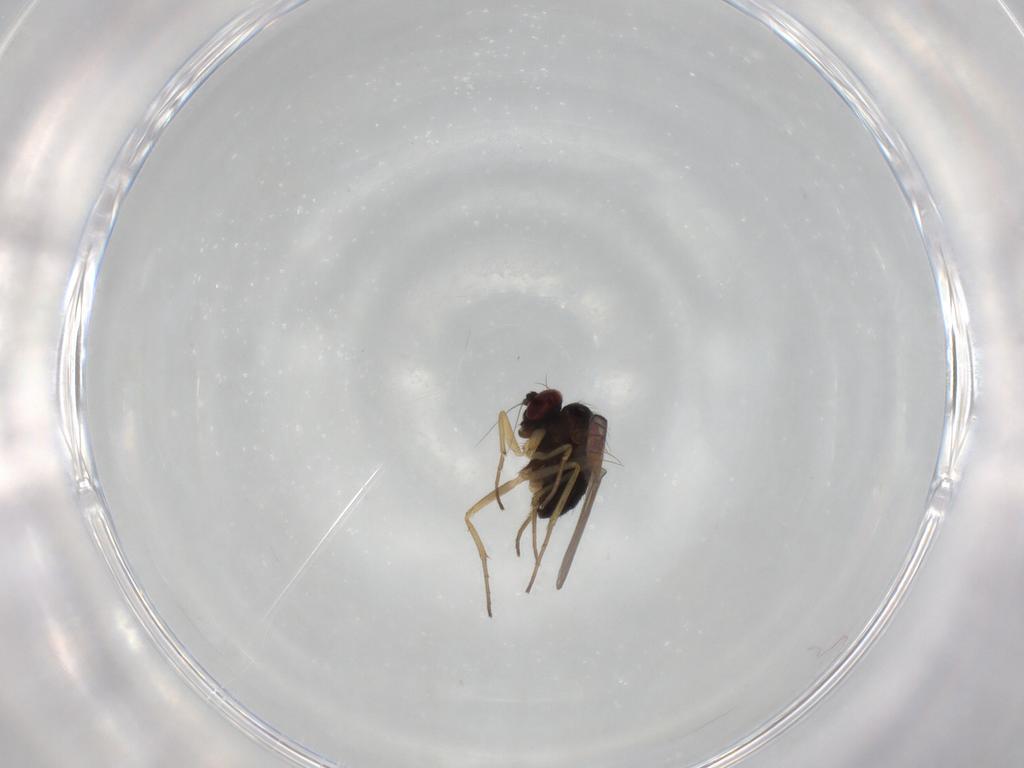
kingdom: Animalia
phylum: Arthropoda
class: Insecta
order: Diptera
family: Dolichopodidae
